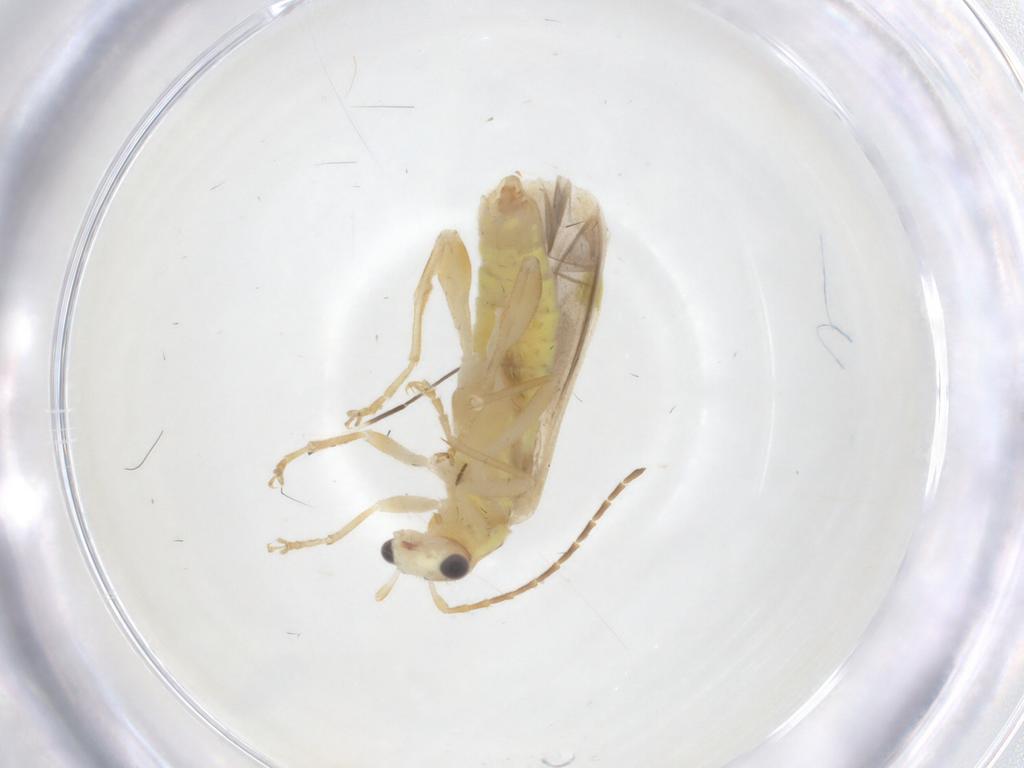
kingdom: Animalia
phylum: Arthropoda
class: Insecta
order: Coleoptera
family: Cantharidae
